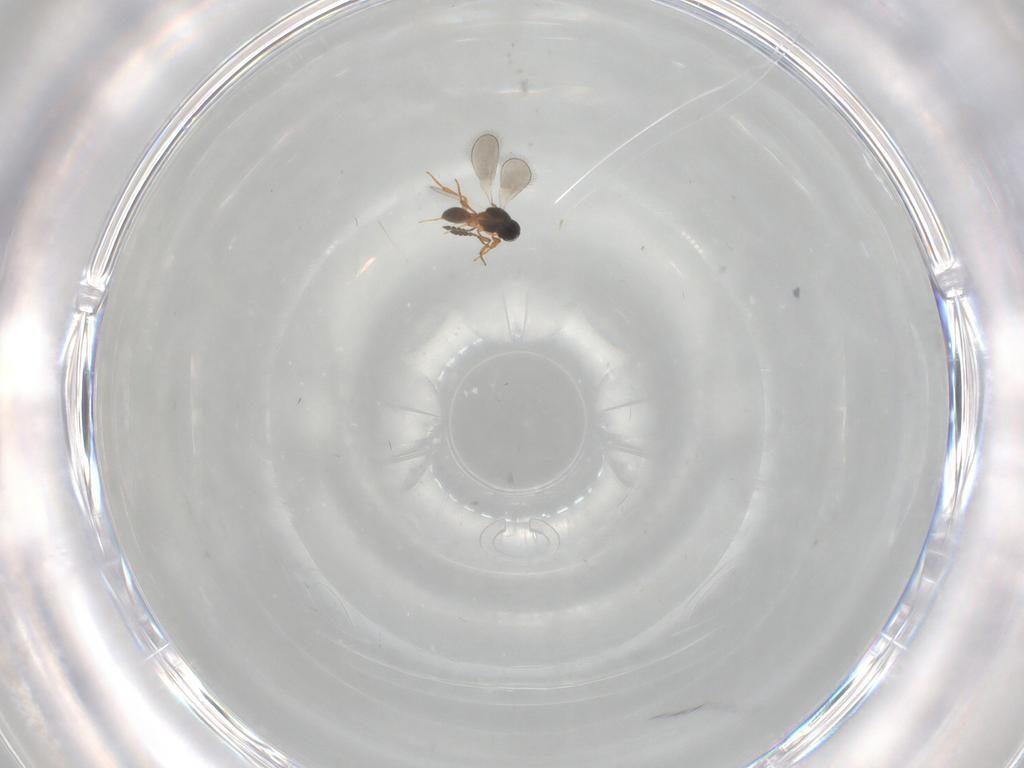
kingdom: Animalia
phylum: Arthropoda
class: Insecta
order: Hymenoptera
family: Platygastridae
